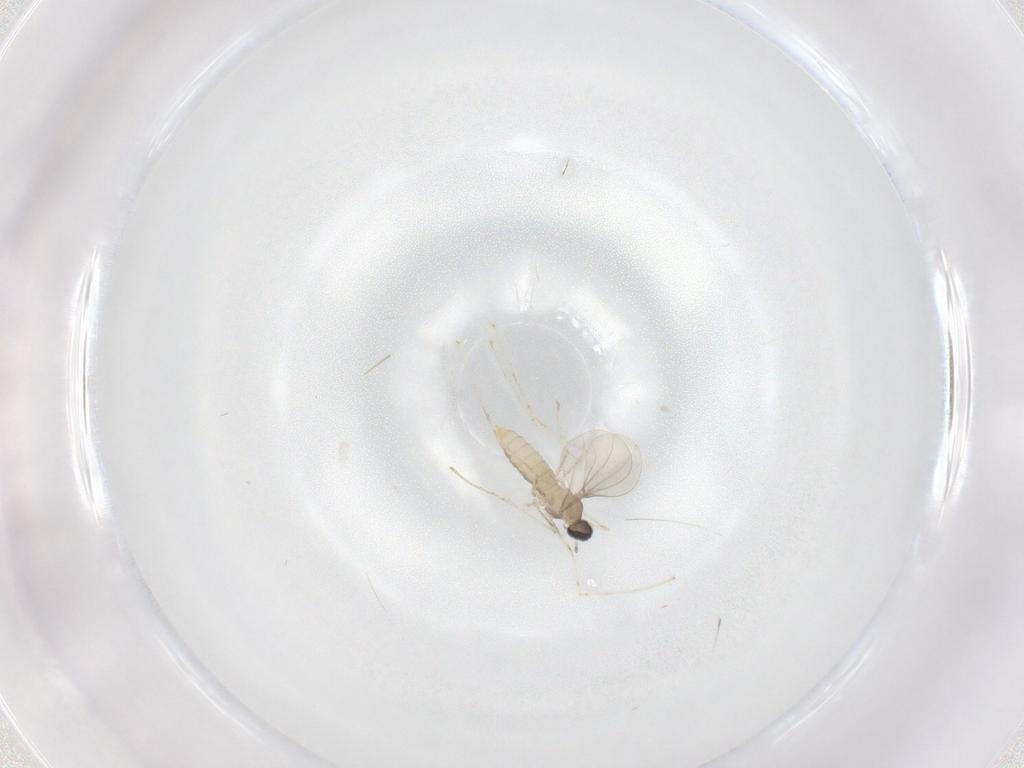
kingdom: Animalia
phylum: Arthropoda
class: Insecta
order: Diptera
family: Cecidomyiidae
